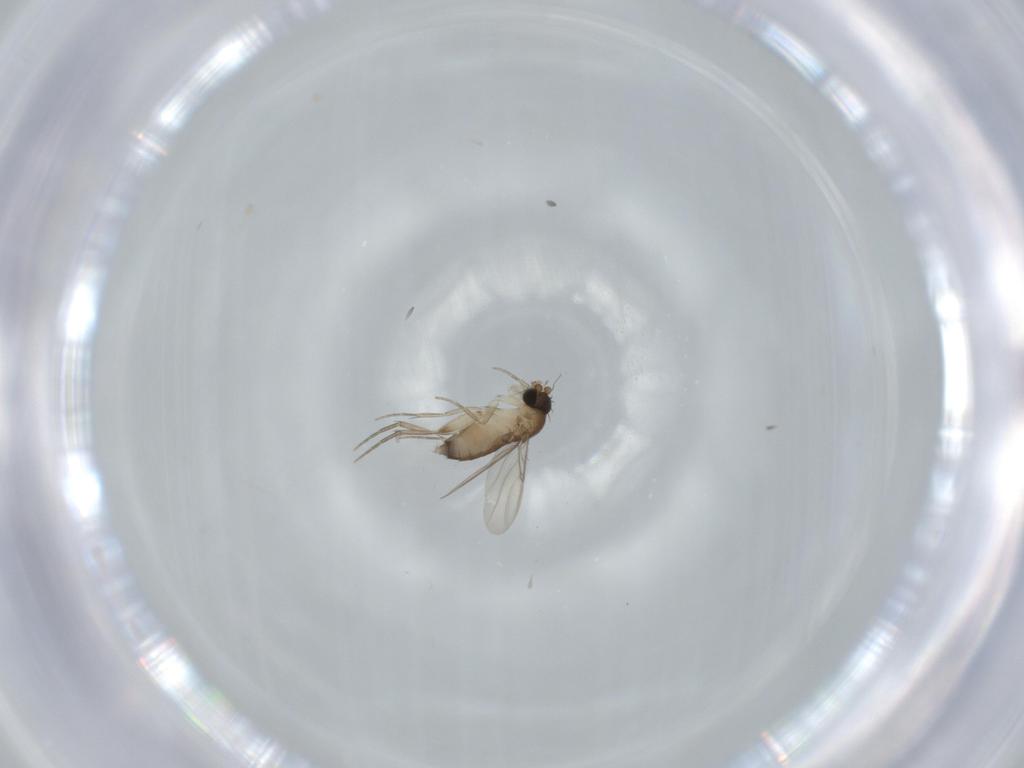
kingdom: Animalia
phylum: Arthropoda
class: Insecta
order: Diptera
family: Phoridae
